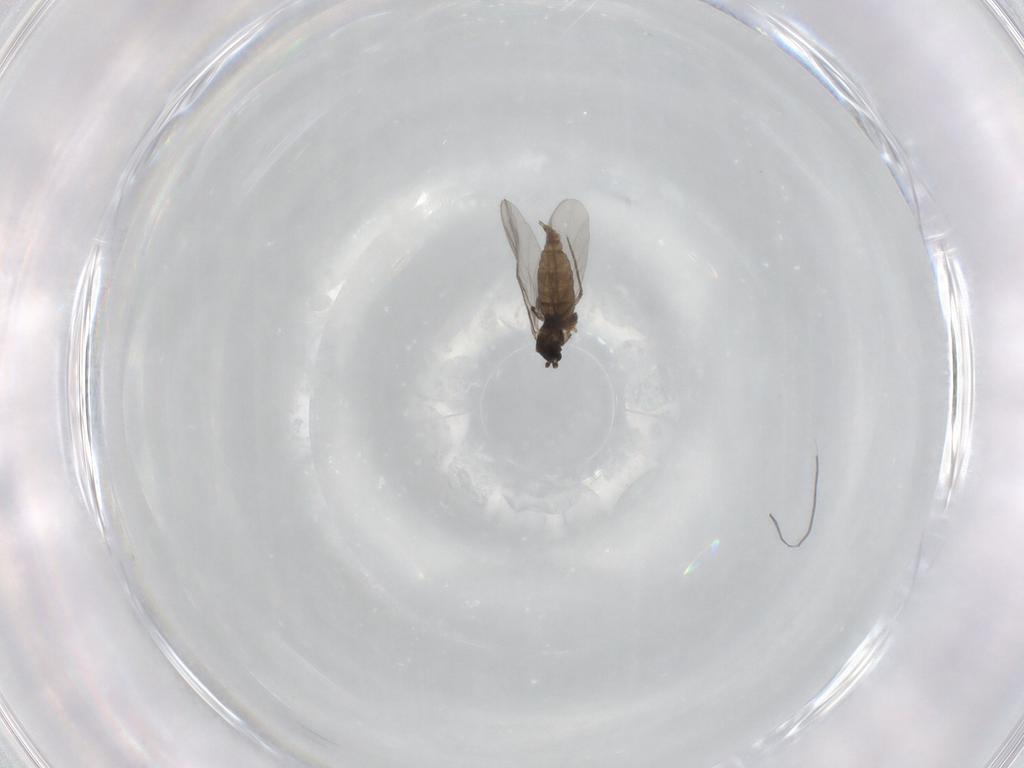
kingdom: Animalia
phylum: Arthropoda
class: Insecta
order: Diptera
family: Sciaridae
